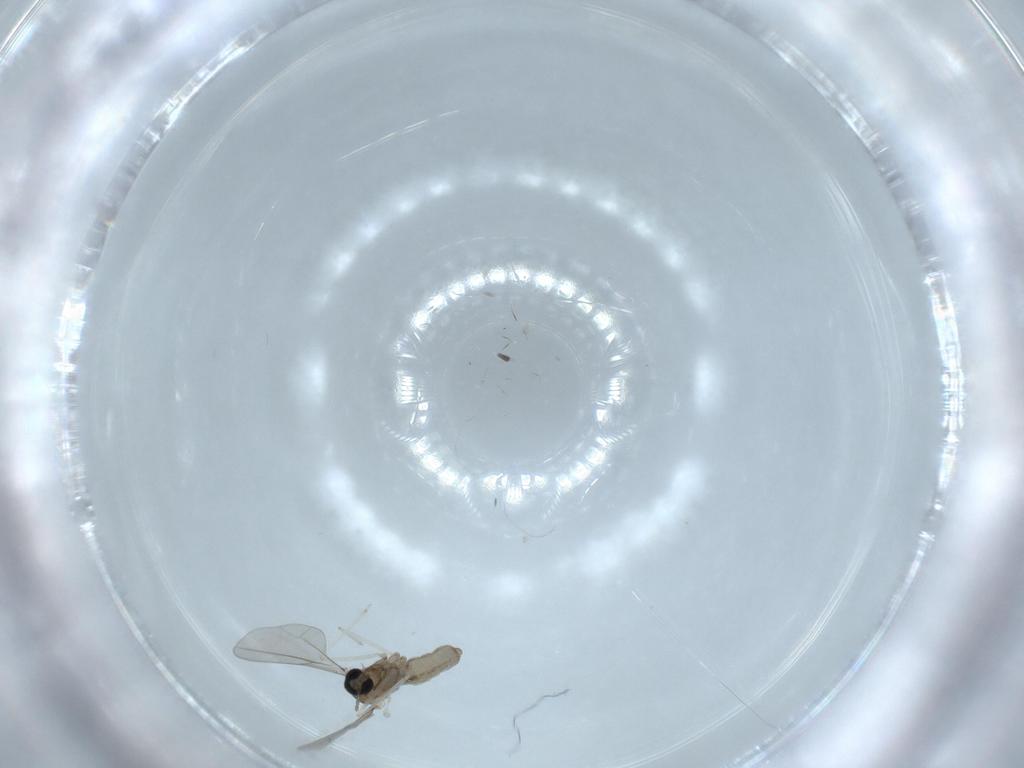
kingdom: Animalia
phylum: Arthropoda
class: Insecta
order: Diptera
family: Cecidomyiidae
